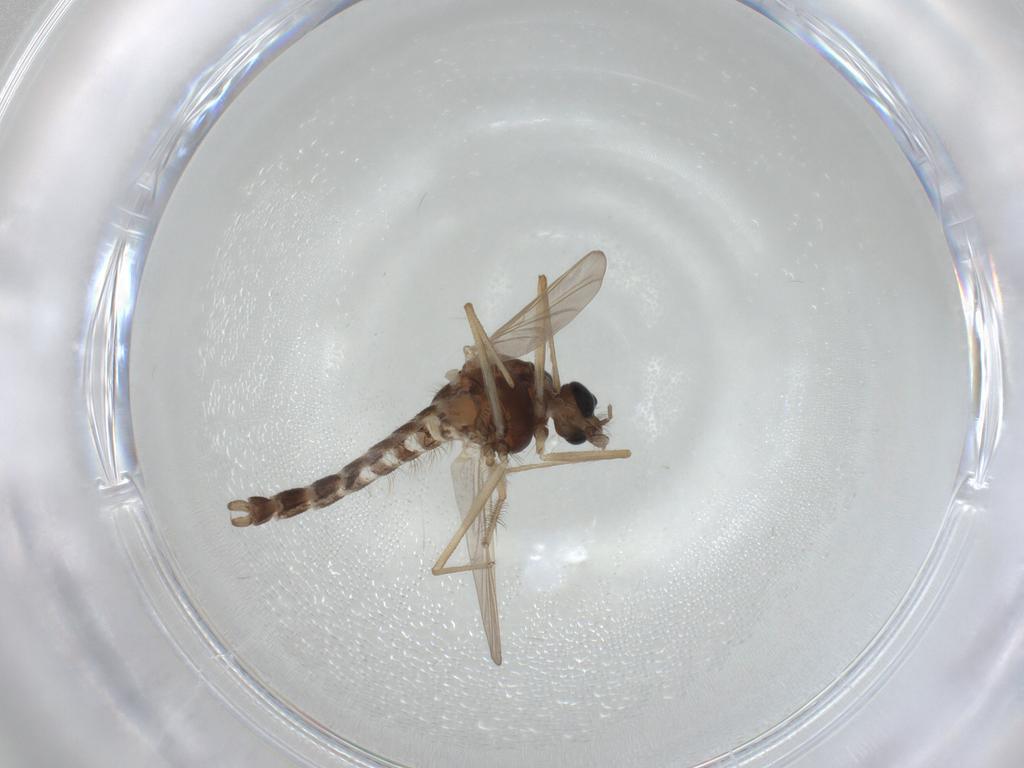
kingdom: Animalia
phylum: Arthropoda
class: Insecta
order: Diptera
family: Chironomidae
